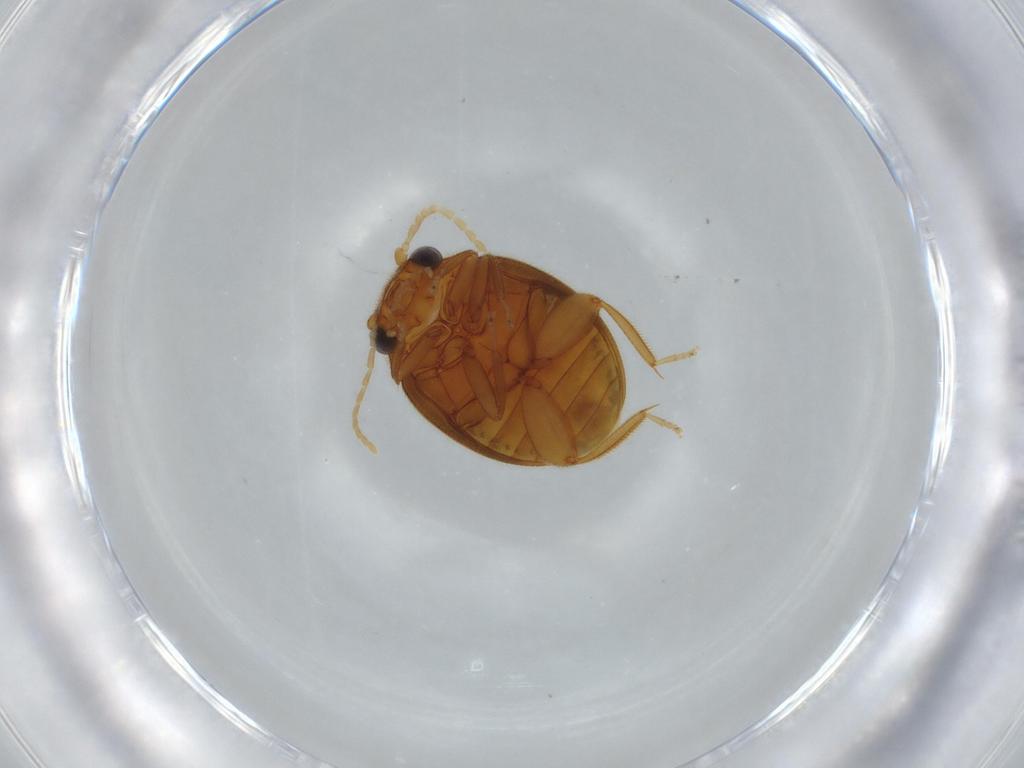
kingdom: Animalia
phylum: Arthropoda
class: Insecta
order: Coleoptera
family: Scirtidae
